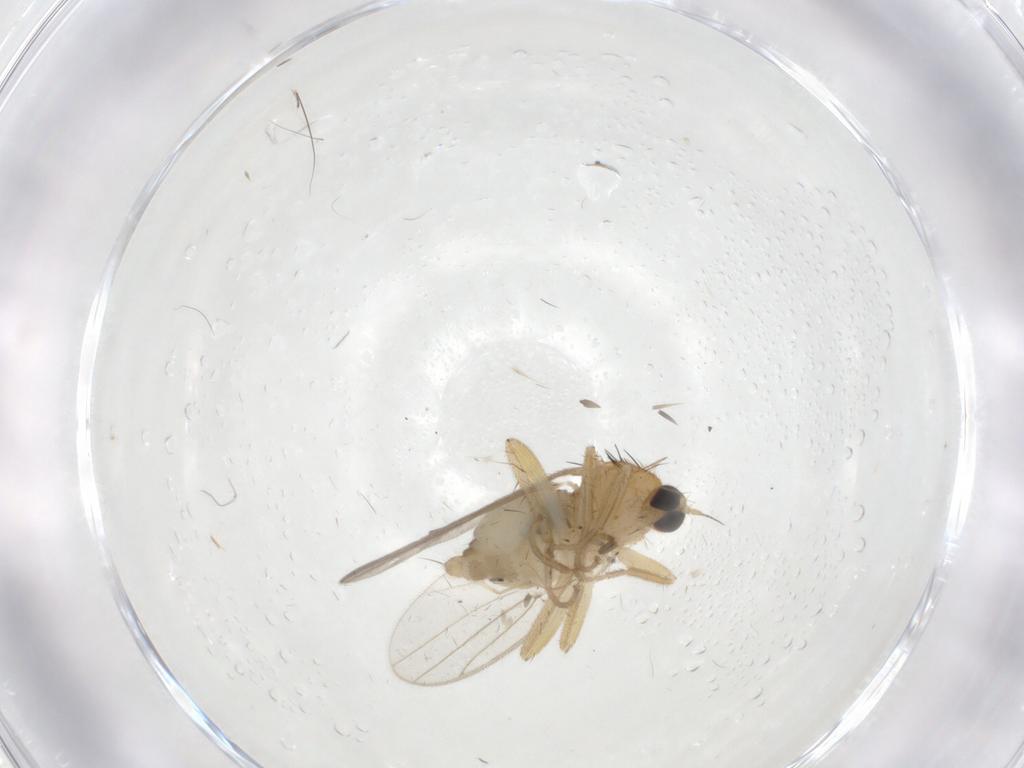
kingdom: Animalia
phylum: Arthropoda
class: Insecta
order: Diptera
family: Hybotidae
